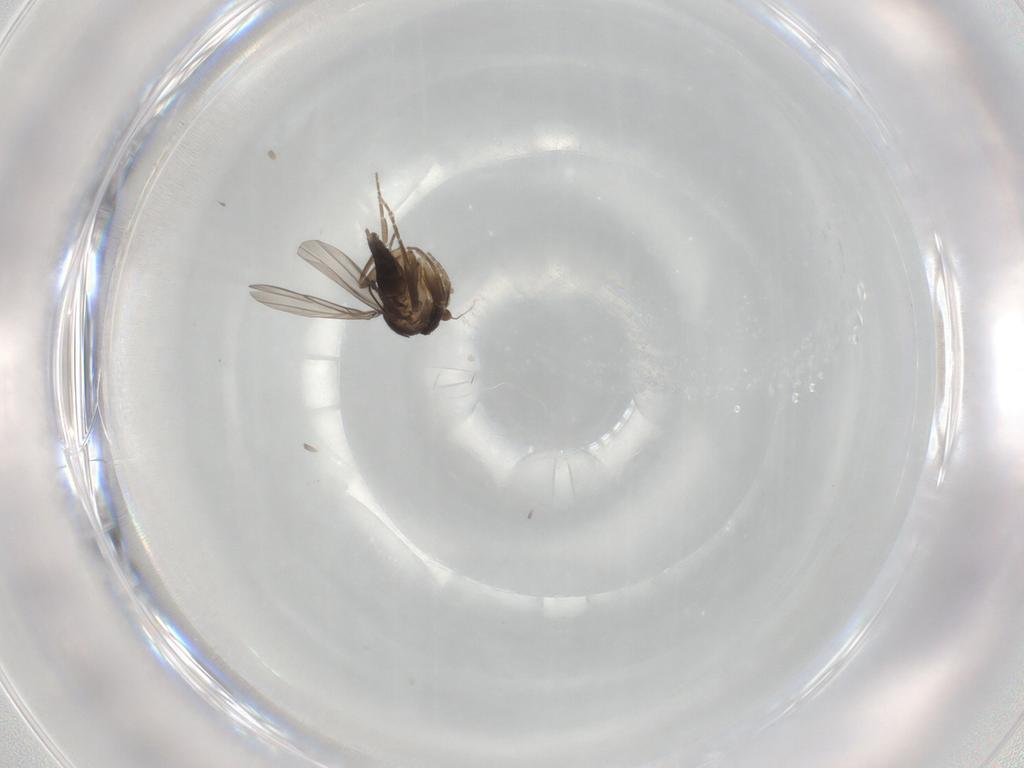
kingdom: Animalia
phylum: Arthropoda
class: Insecta
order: Diptera
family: Phoridae
